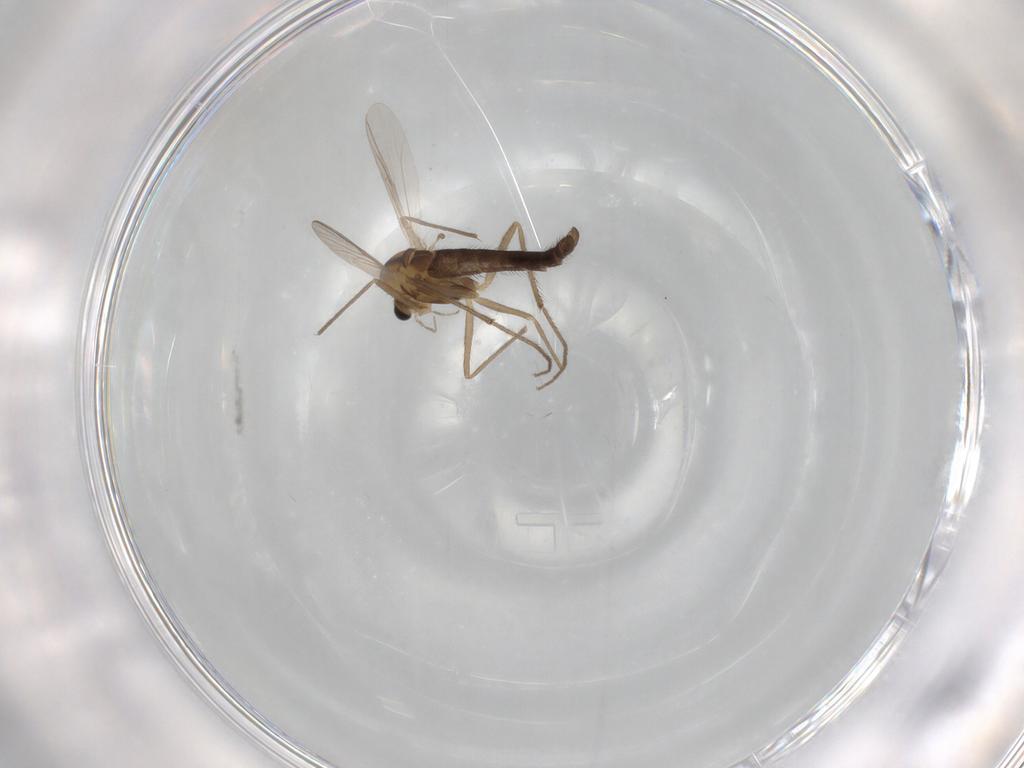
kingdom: Animalia
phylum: Arthropoda
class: Insecta
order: Diptera
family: Chironomidae
